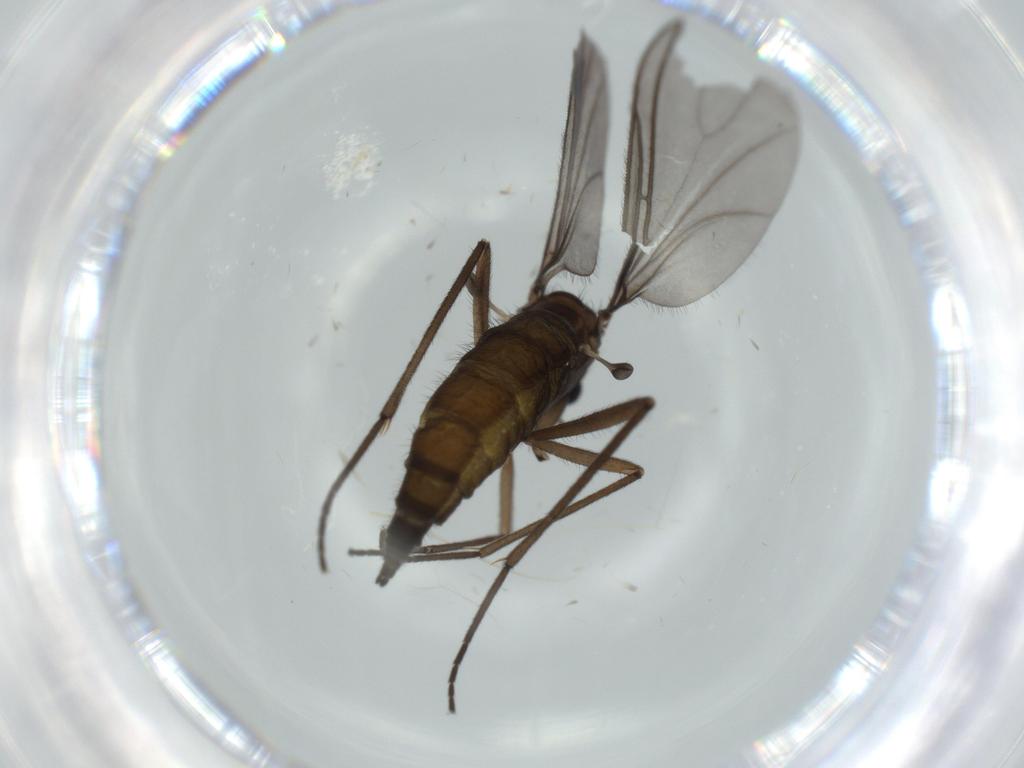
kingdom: Animalia
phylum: Arthropoda
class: Insecta
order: Diptera
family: Sciaridae
